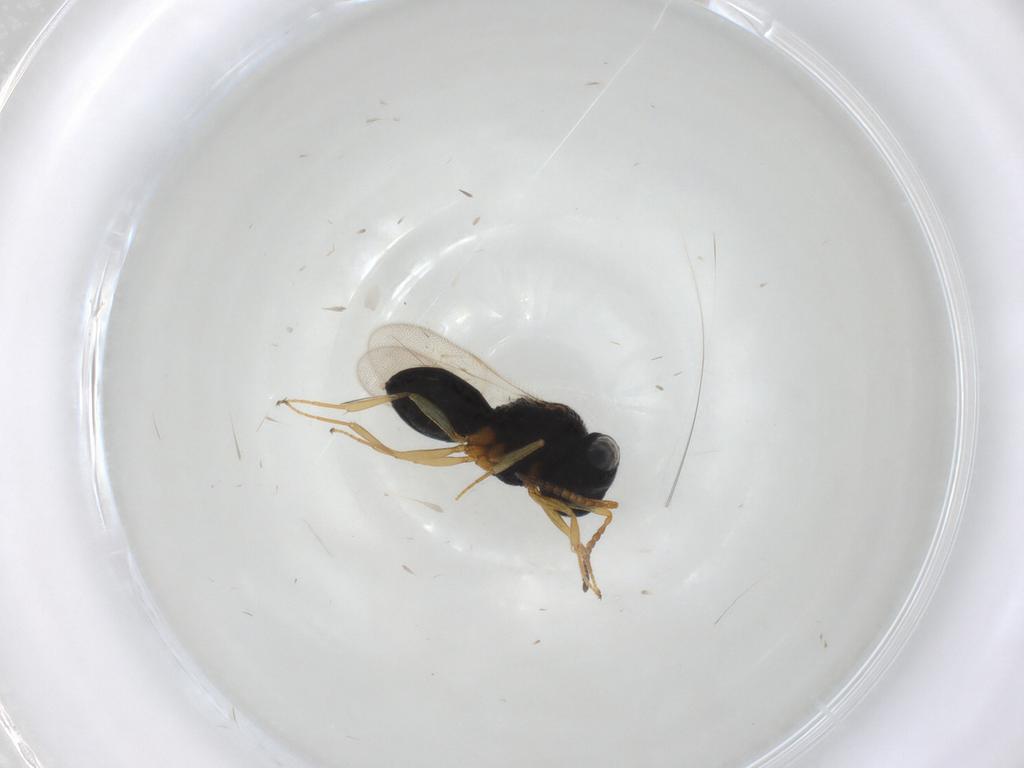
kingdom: Animalia
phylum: Arthropoda
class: Insecta
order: Hymenoptera
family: Scelionidae
